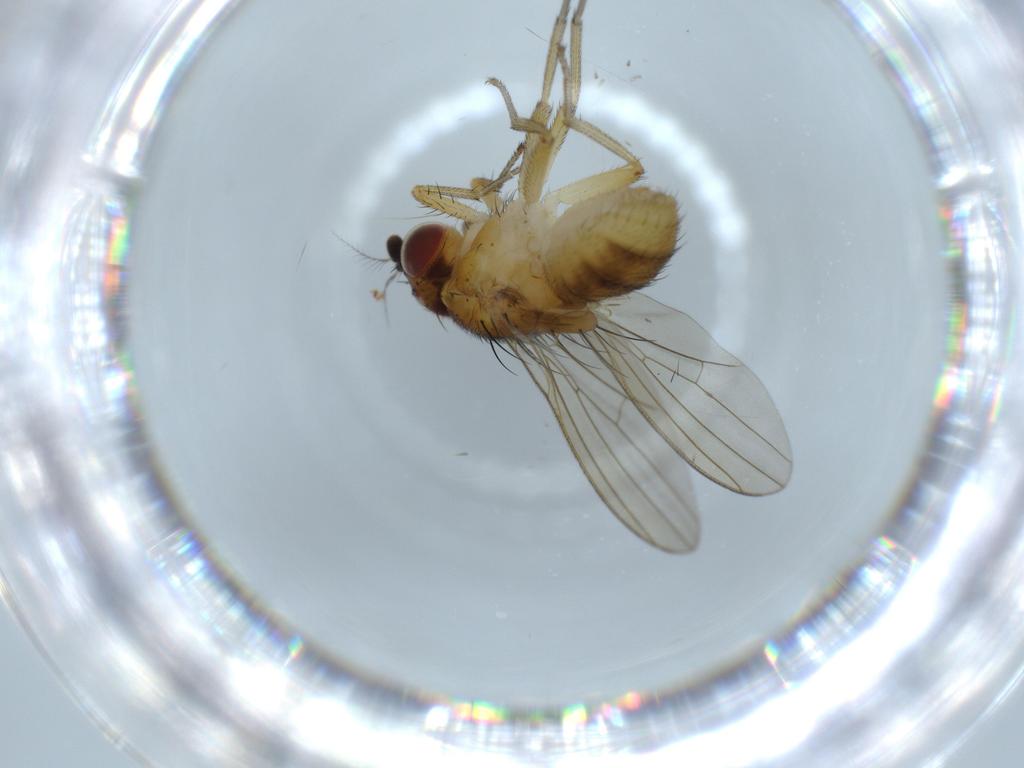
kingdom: Animalia
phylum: Arthropoda
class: Insecta
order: Diptera
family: Lauxaniidae
